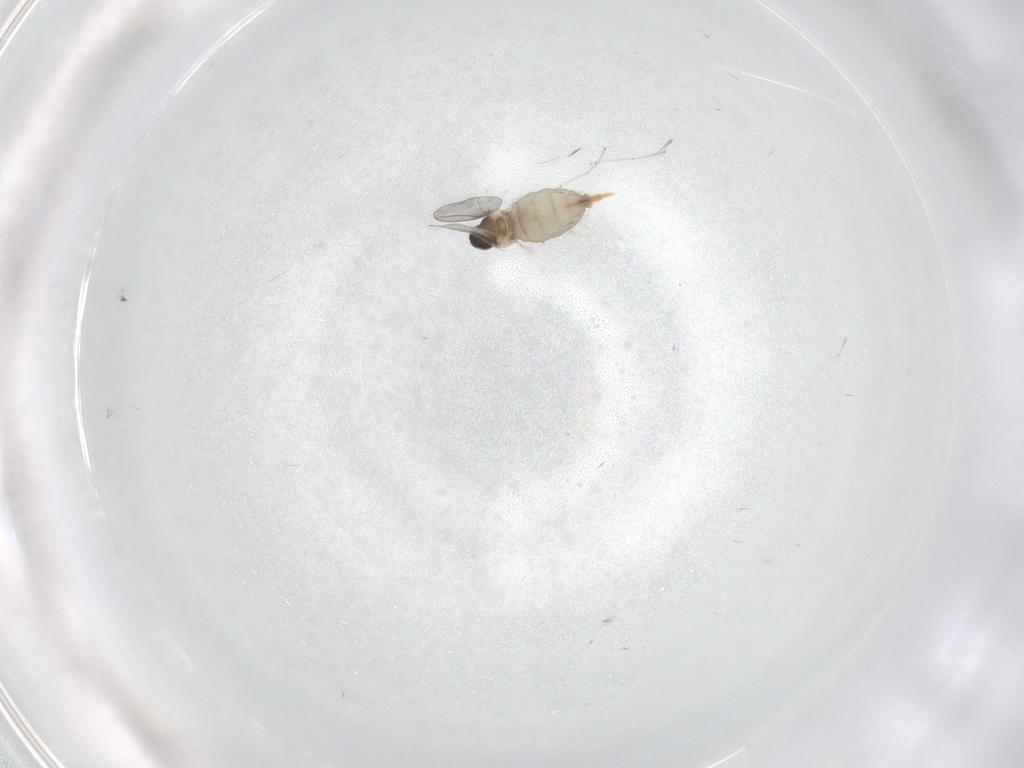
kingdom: Animalia
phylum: Arthropoda
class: Insecta
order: Diptera
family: Cecidomyiidae
